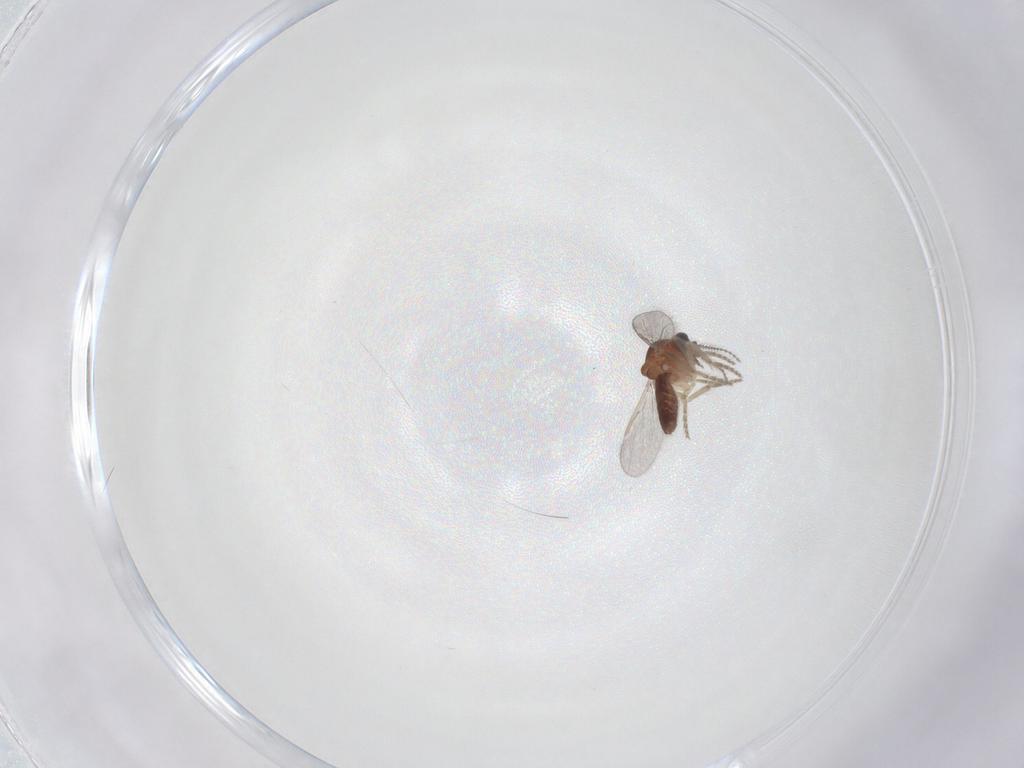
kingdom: Animalia
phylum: Arthropoda
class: Insecta
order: Diptera
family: Ceratopogonidae
